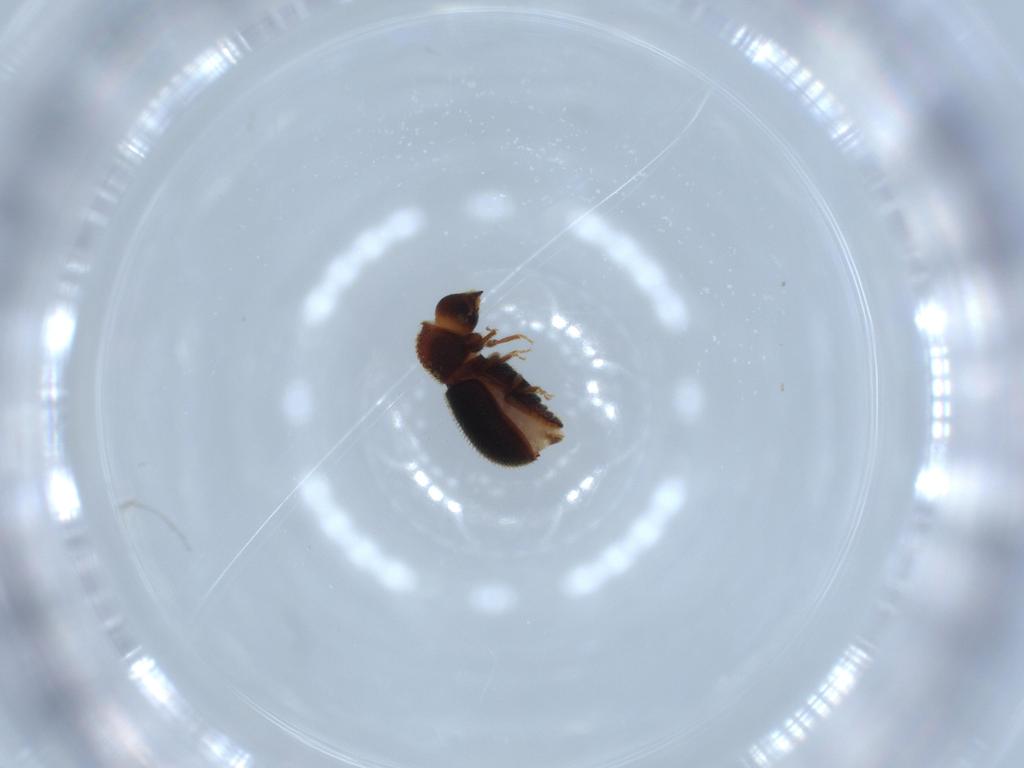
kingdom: Animalia
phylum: Arthropoda
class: Insecta
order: Coleoptera
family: Curculionidae
